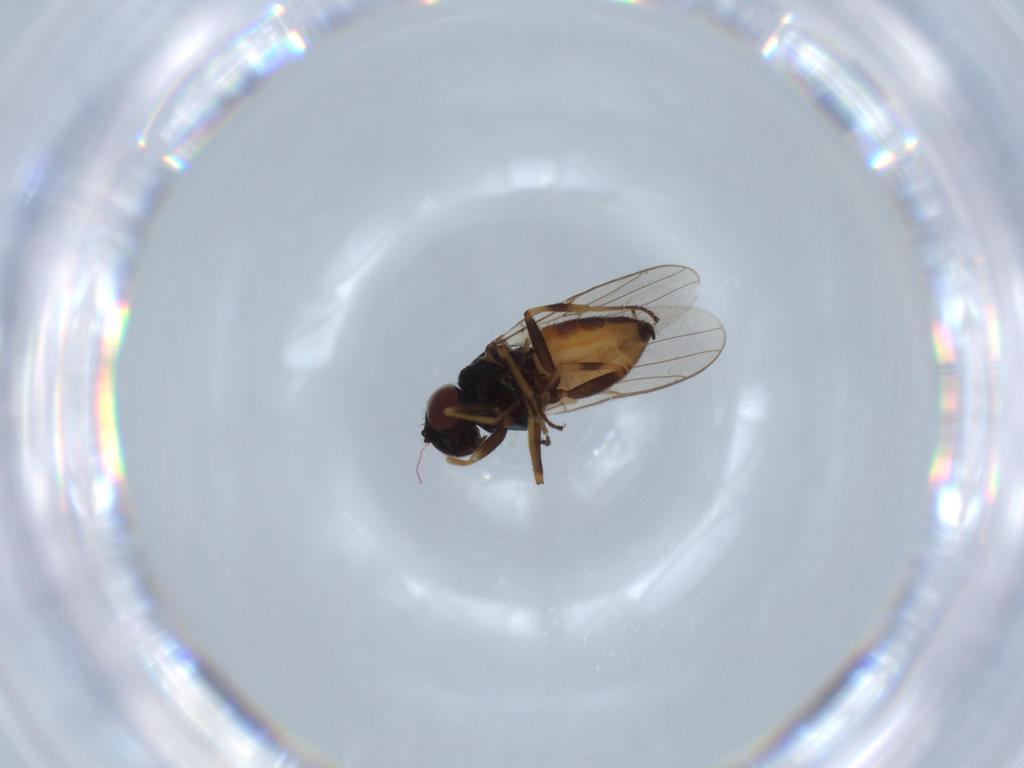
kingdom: Animalia
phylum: Arthropoda
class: Insecta
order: Diptera
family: Chloropidae
